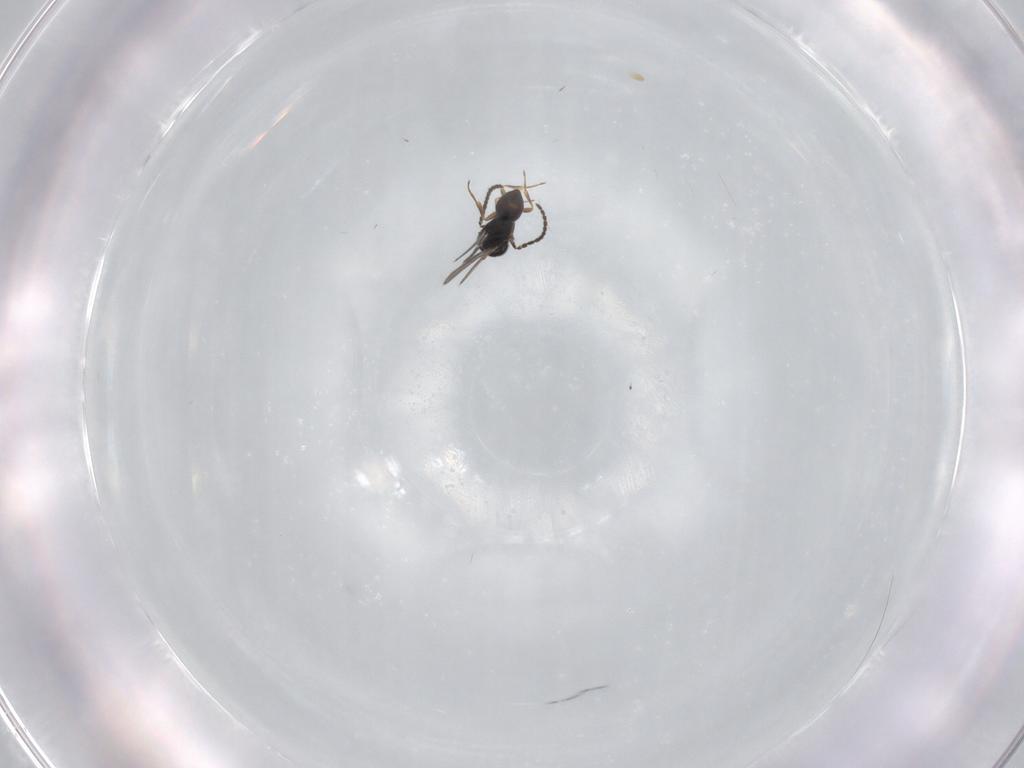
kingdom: Animalia
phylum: Arthropoda
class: Insecta
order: Hymenoptera
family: Scelionidae
